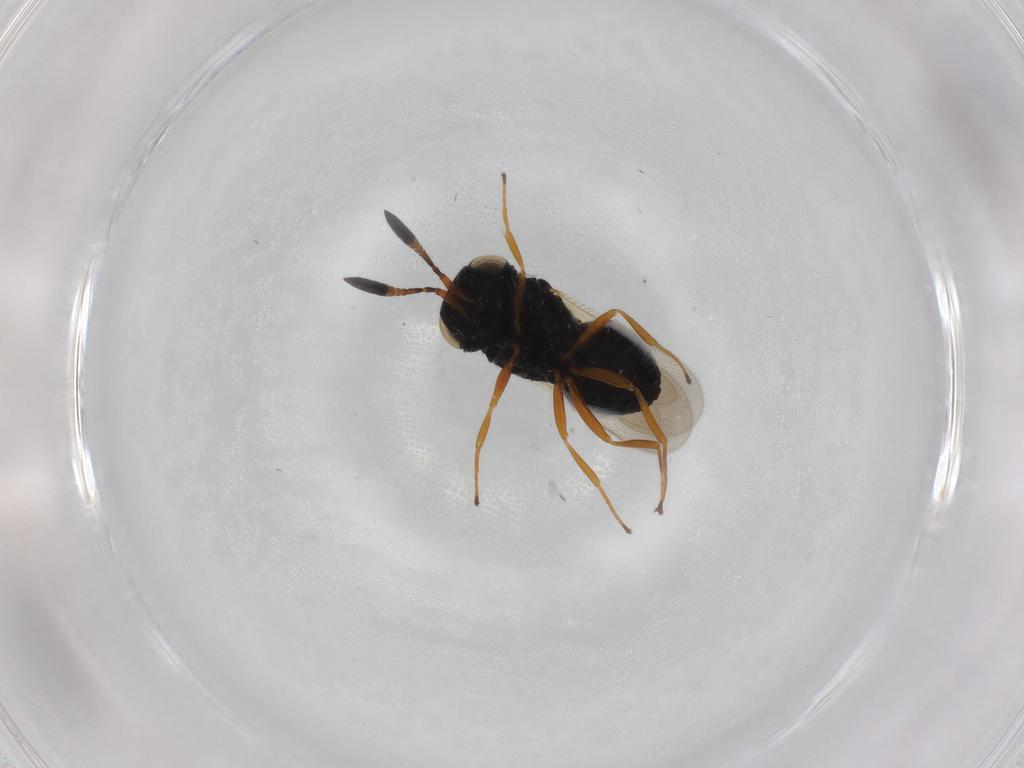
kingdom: Animalia
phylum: Arthropoda
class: Insecta
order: Hymenoptera
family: Scelionidae
